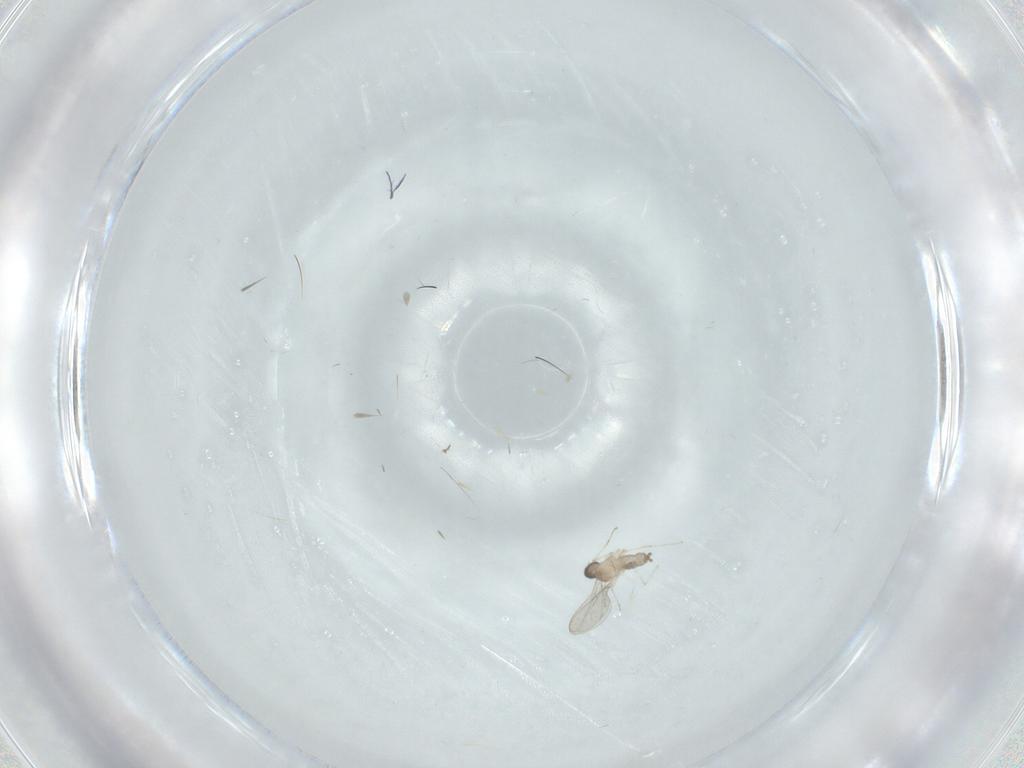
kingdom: Animalia
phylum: Arthropoda
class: Insecta
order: Diptera
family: Cecidomyiidae
